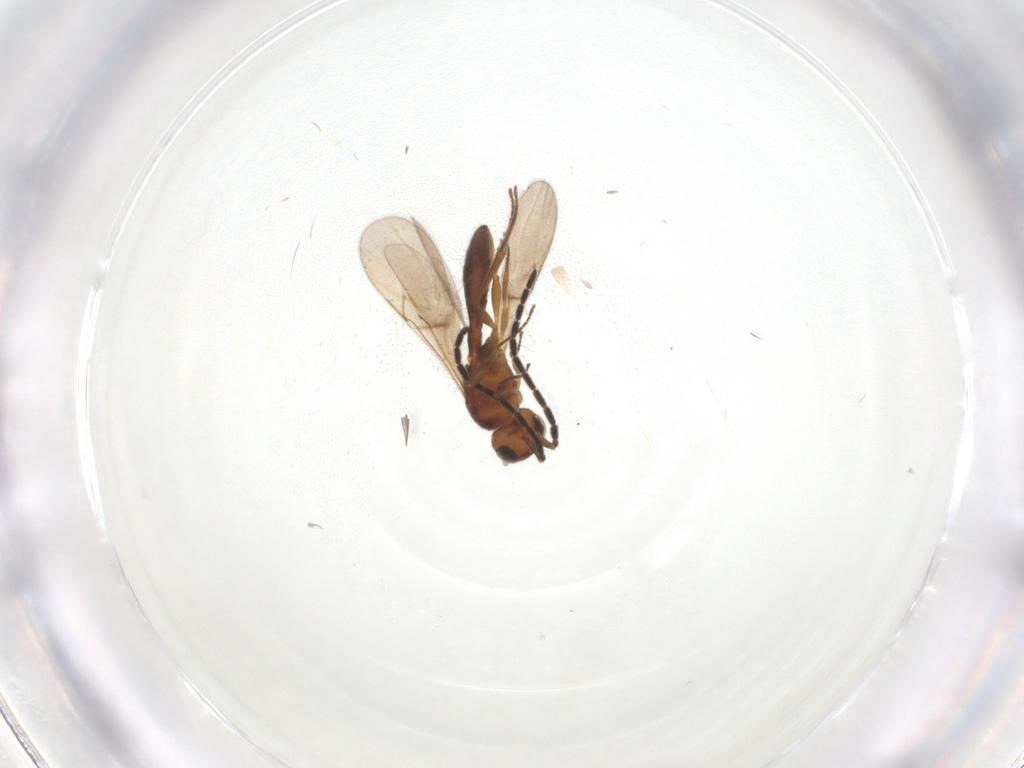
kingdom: Animalia
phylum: Arthropoda
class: Insecta
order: Hymenoptera
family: Scelionidae
